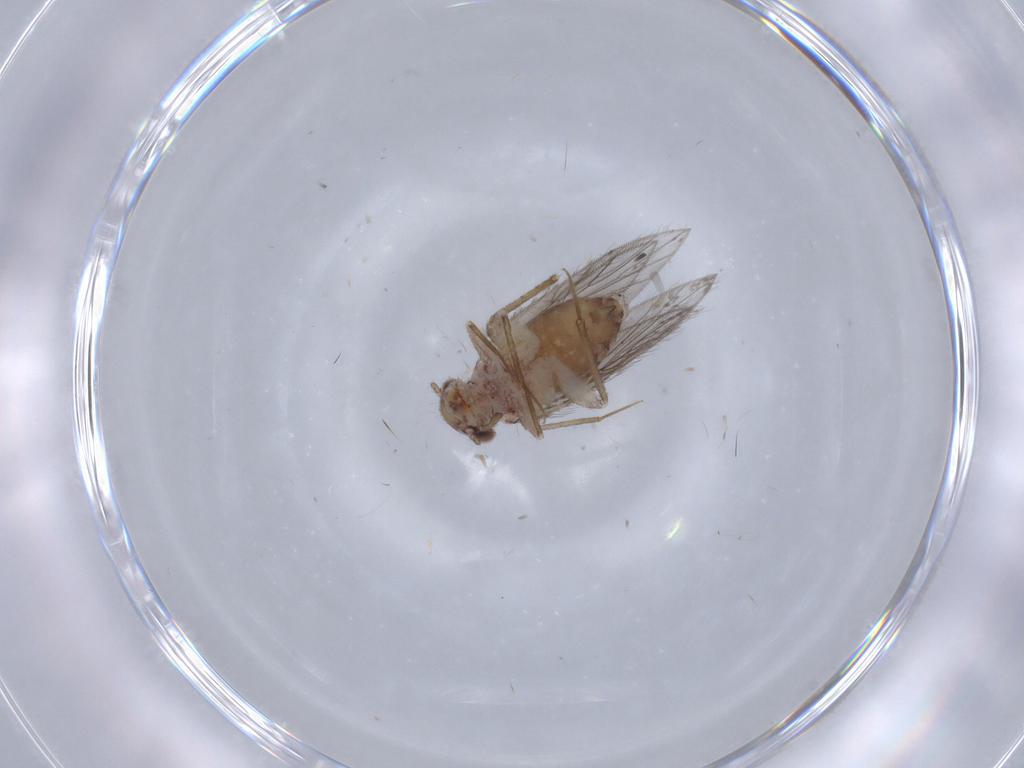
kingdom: Animalia
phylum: Arthropoda
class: Insecta
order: Psocodea
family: Lepidopsocidae
